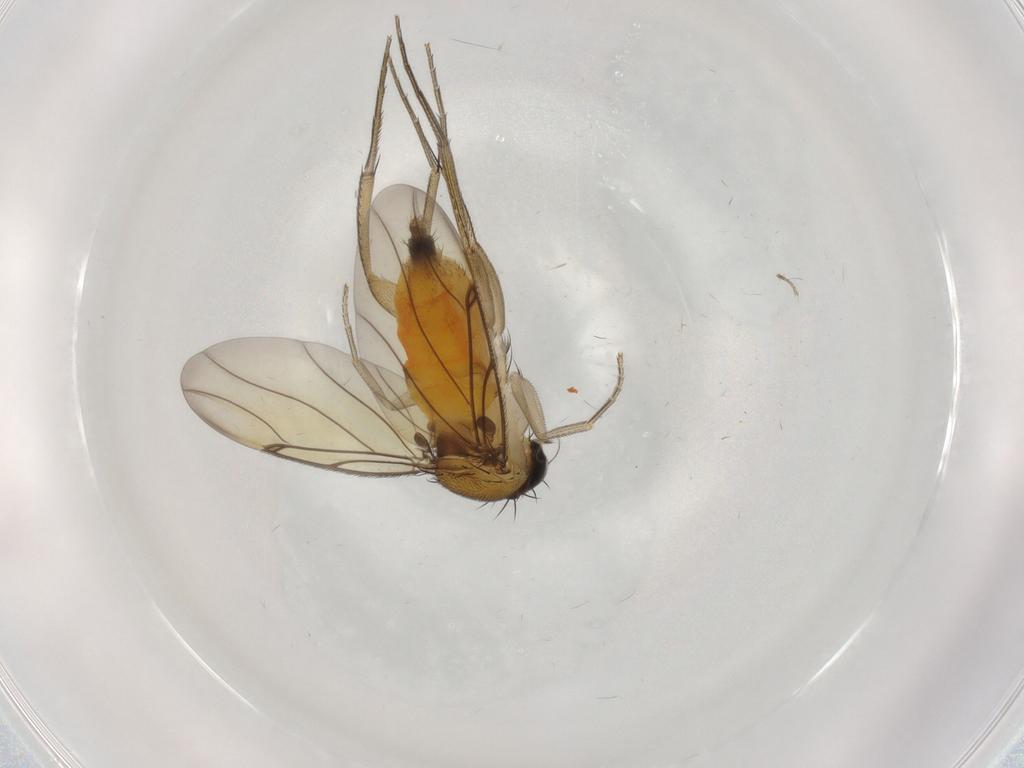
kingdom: Animalia
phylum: Arthropoda
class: Insecta
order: Diptera
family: Phoridae
